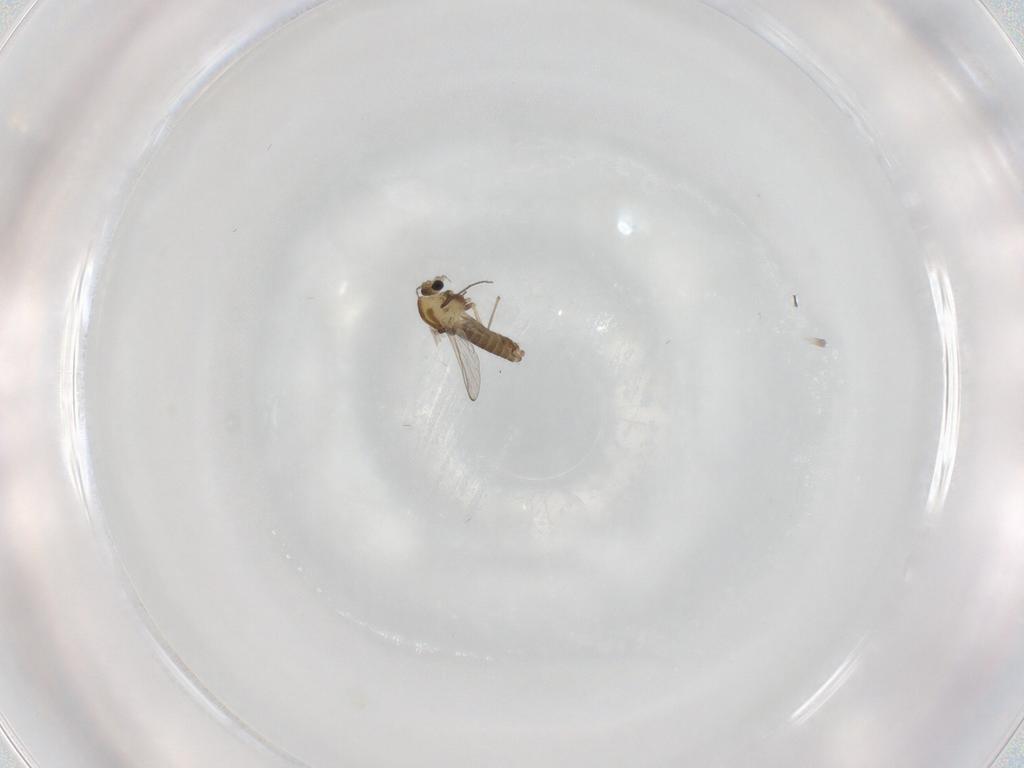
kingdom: Animalia
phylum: Arthropoda
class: Insecta
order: Diptera
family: Chironomidae
